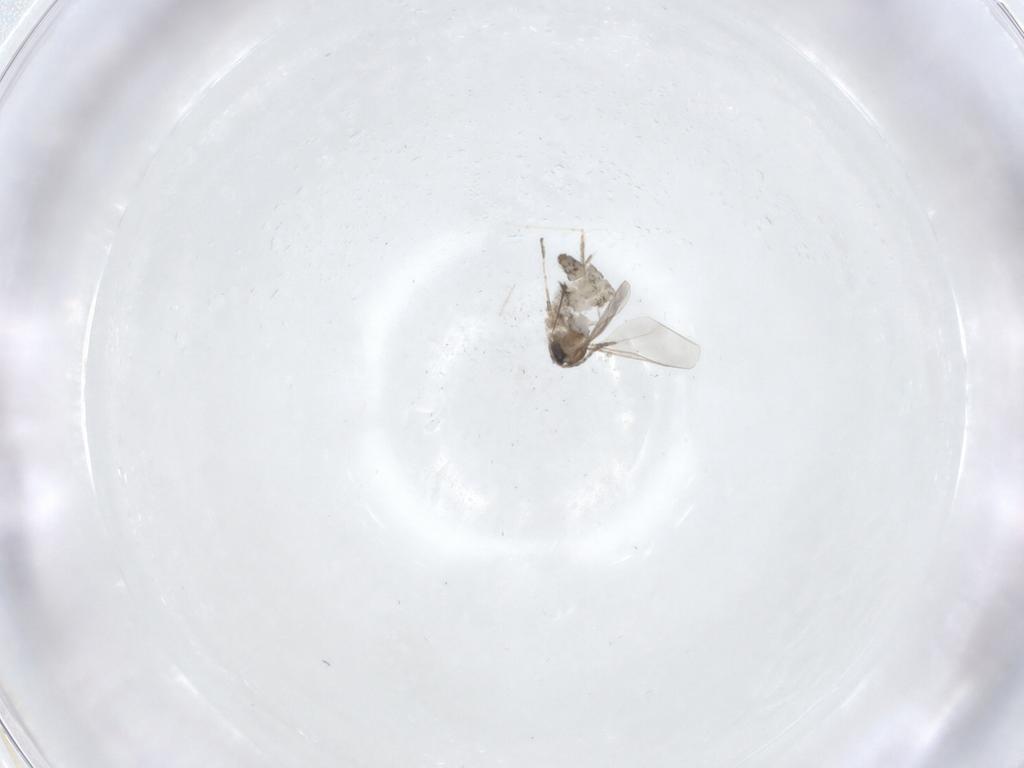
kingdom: Animalia
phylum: Arthropoda
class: Insecta
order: Diptera
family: Cecidomyiidae
